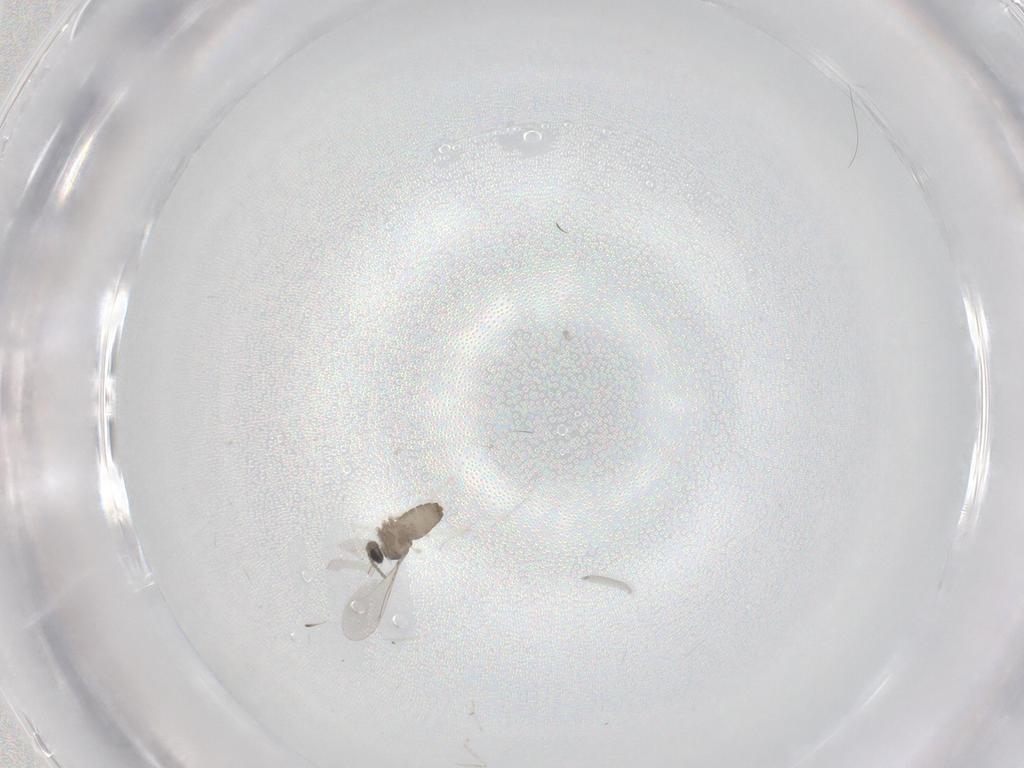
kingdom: Animalia
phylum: Arthropoda
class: Insecta
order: Diptera
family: Cecidomyiidae
